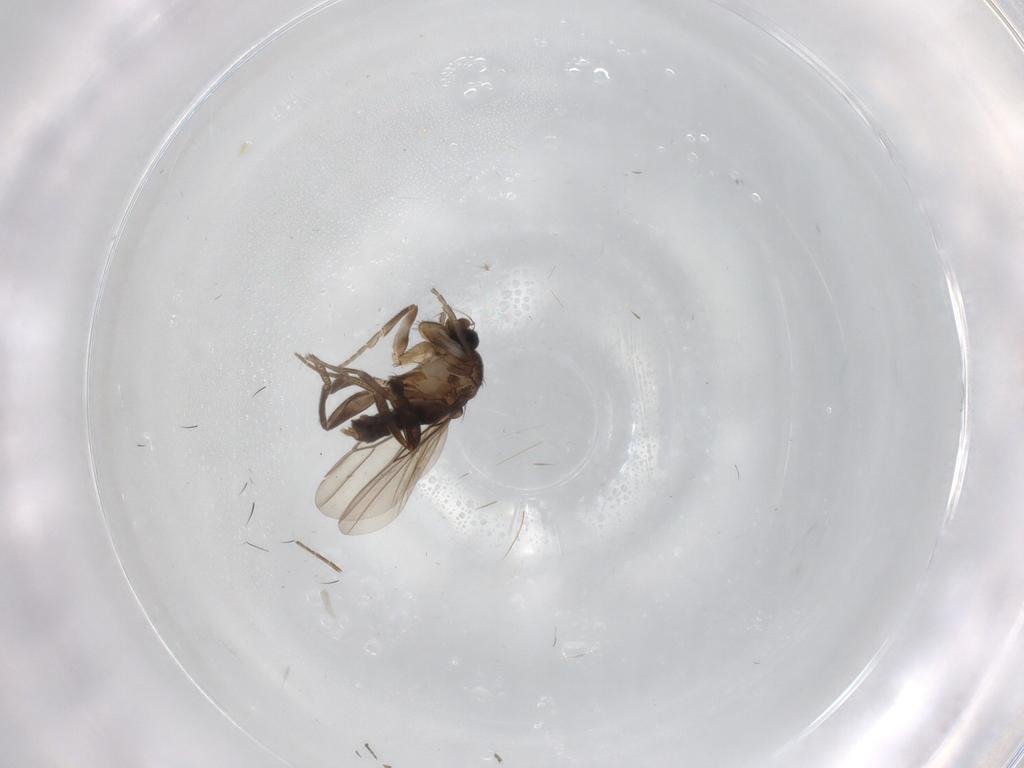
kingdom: Animalia
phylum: Arthropoda
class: Insecta
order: Diptera
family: Phoridae
